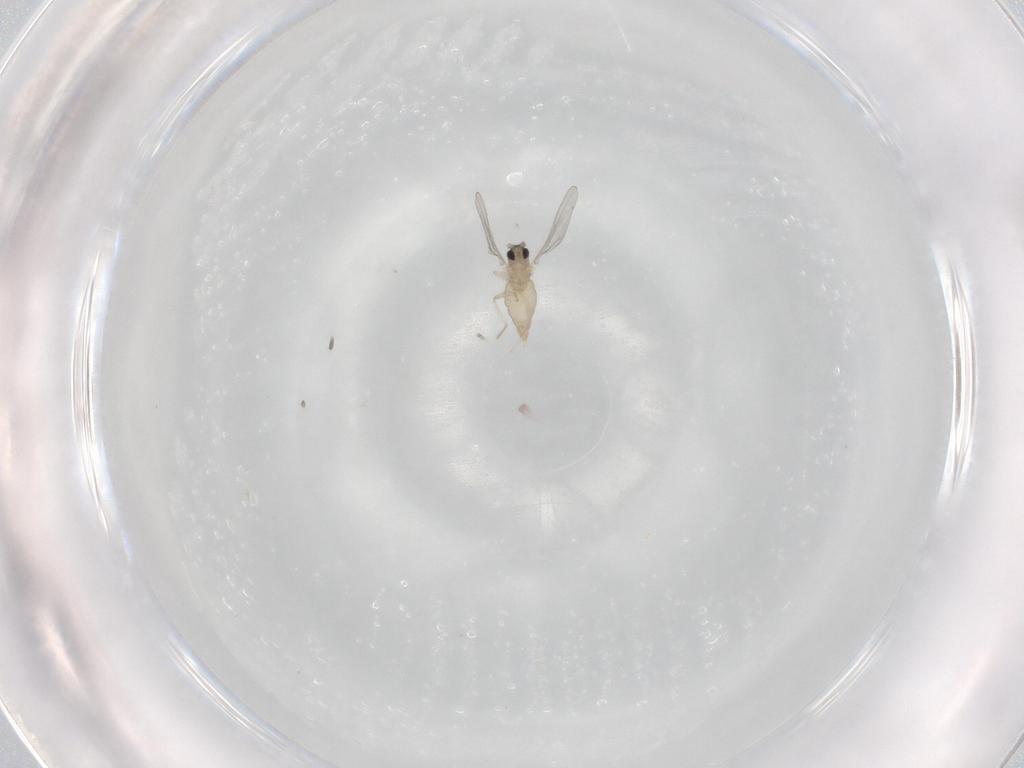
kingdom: Animalia
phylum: Arthropoda
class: Insecta
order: Diptera
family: Cecidomyiidae
